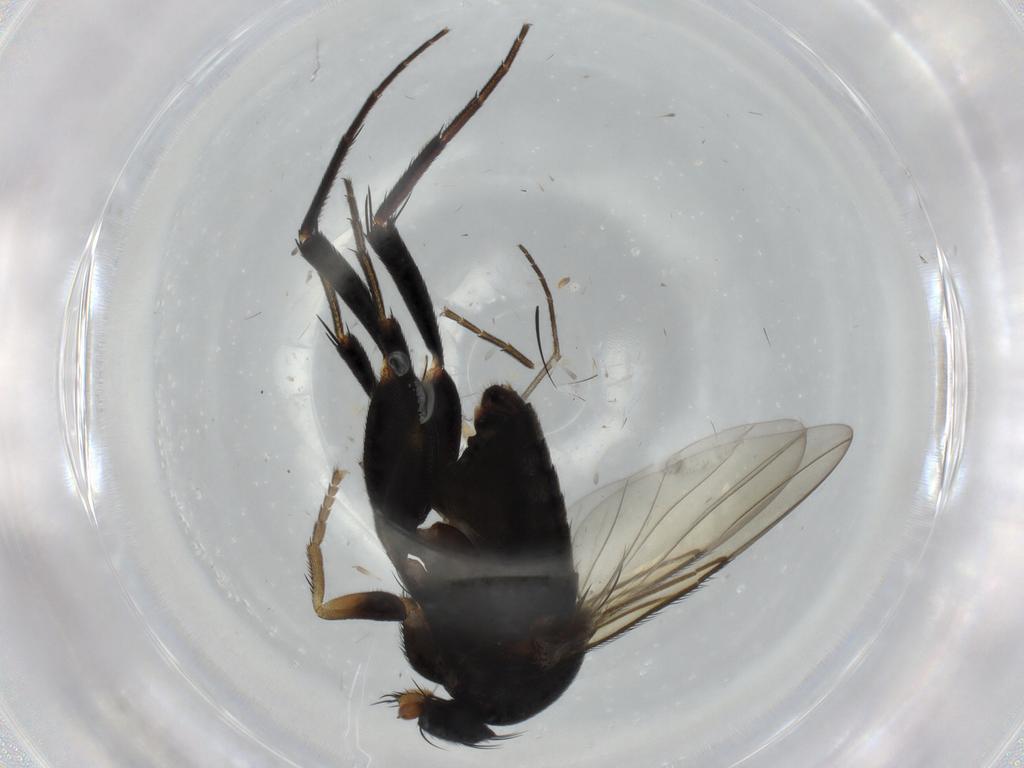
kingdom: Animalia
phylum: Arthropoda
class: Insecta
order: Diptera
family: Phoridae
